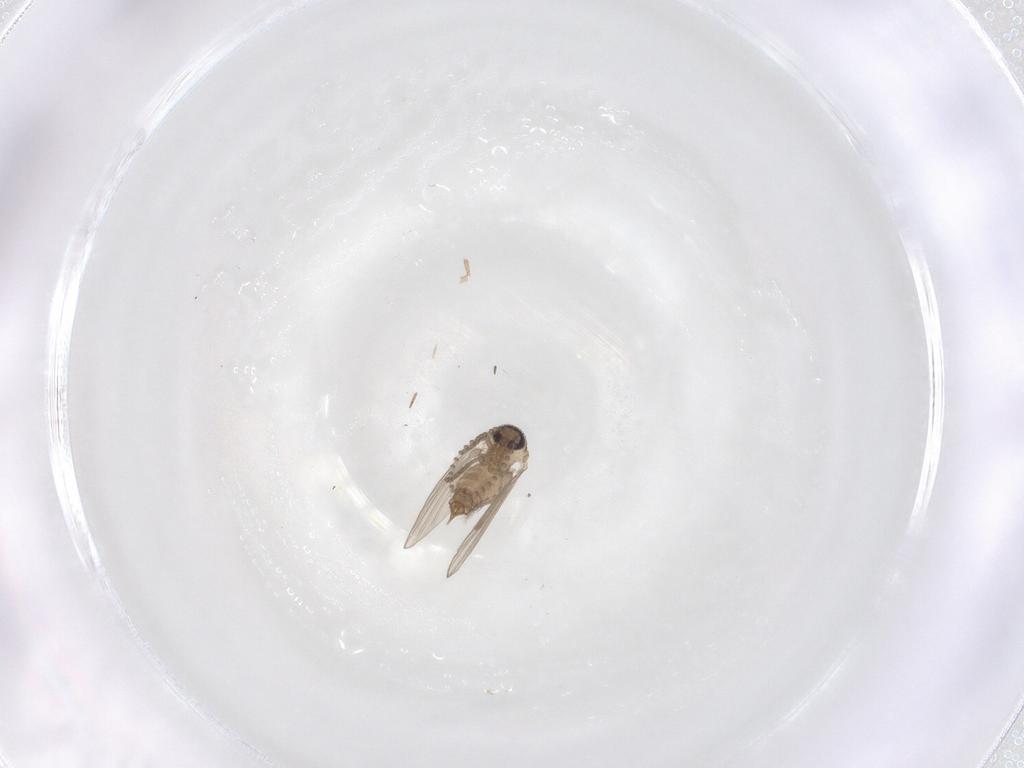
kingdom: Animalia
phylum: Arthropoda
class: Insecta
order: Diptera
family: Psychodidae
